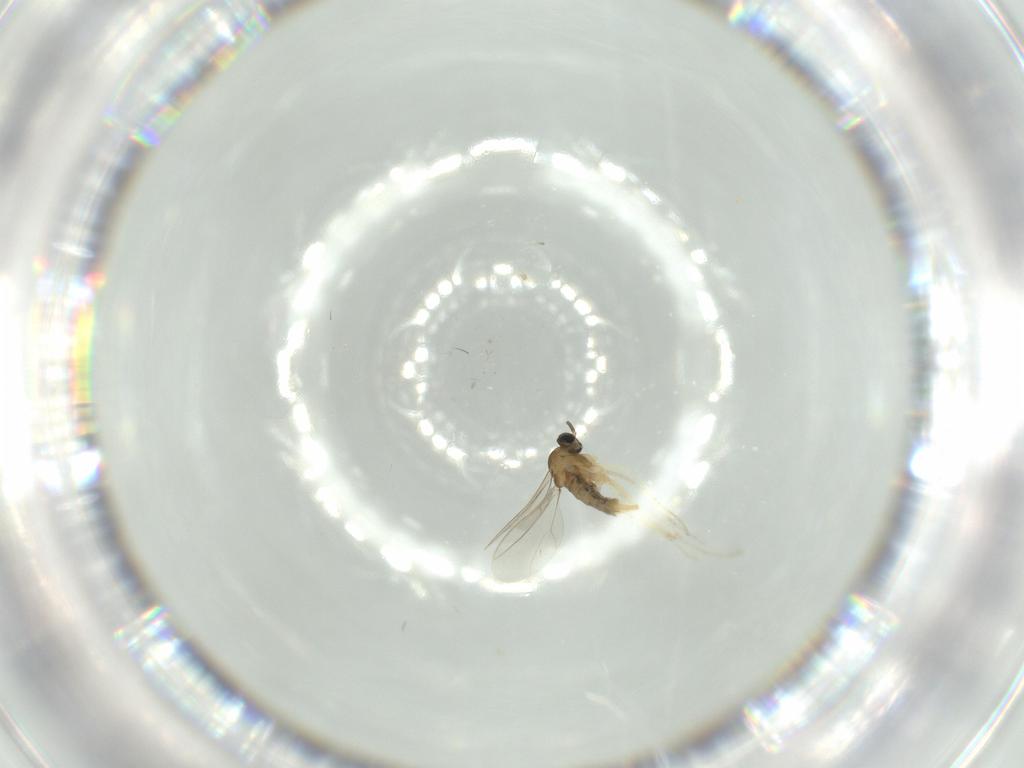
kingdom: Animalia
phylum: Arthropoda
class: Insecta
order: Diptera
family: Cecidomyiidae
